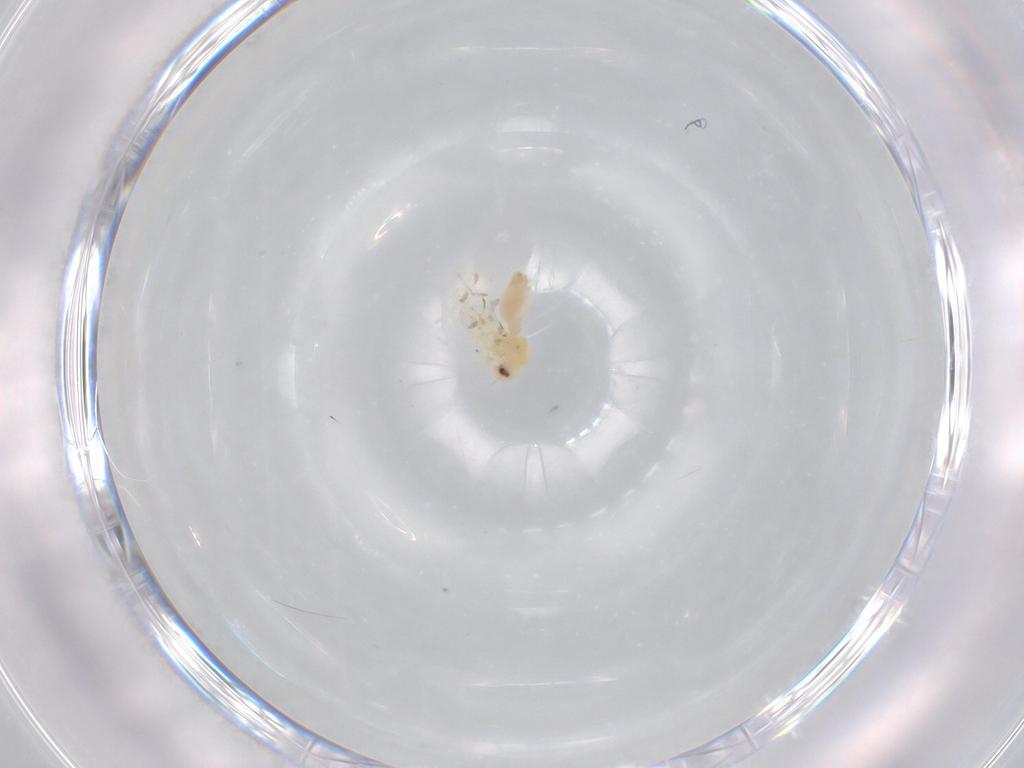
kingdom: Animalia
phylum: Arthropoda
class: Insecta
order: Hemiptera
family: Aleyrodidae
